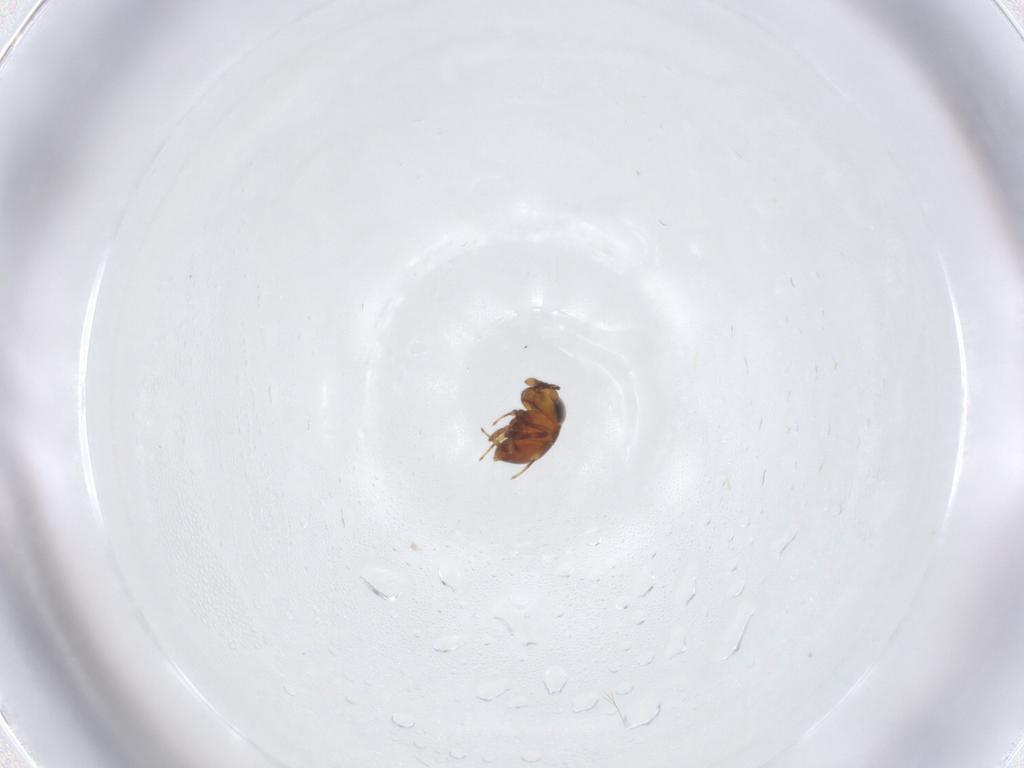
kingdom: Animalia
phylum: Arthropoda
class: Insecta
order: Hymenoptera
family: Scelionidae
